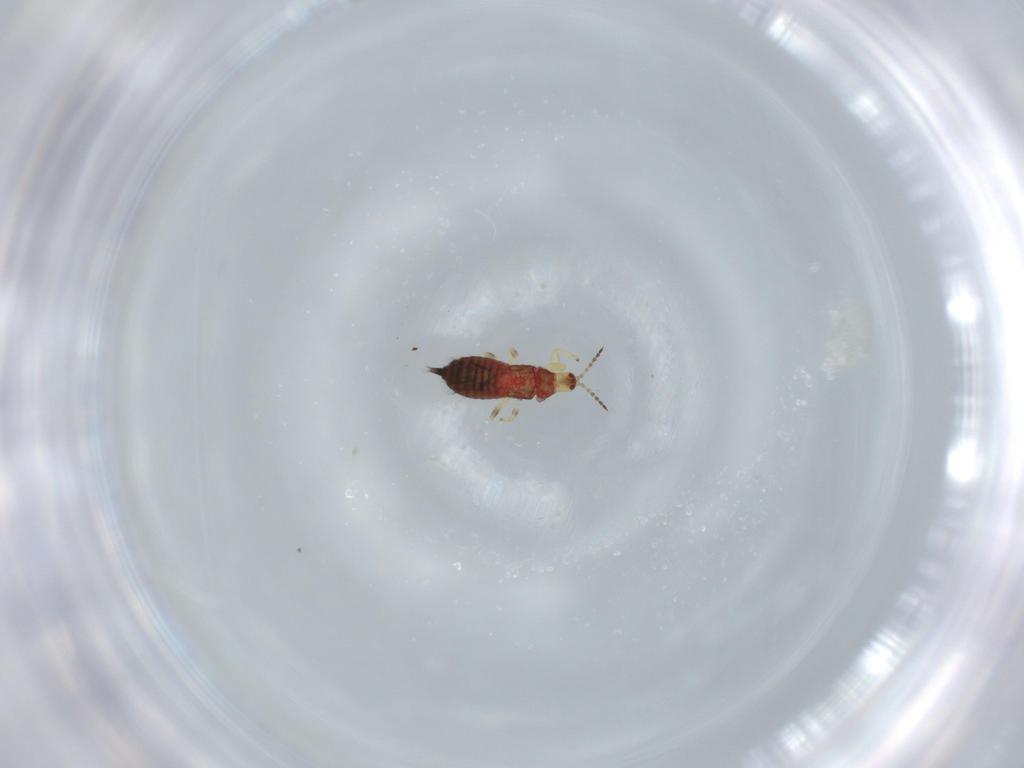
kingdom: Animalia
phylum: Arthropoda
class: Insecta
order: Thysanoptera
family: Phlaeothripidae
